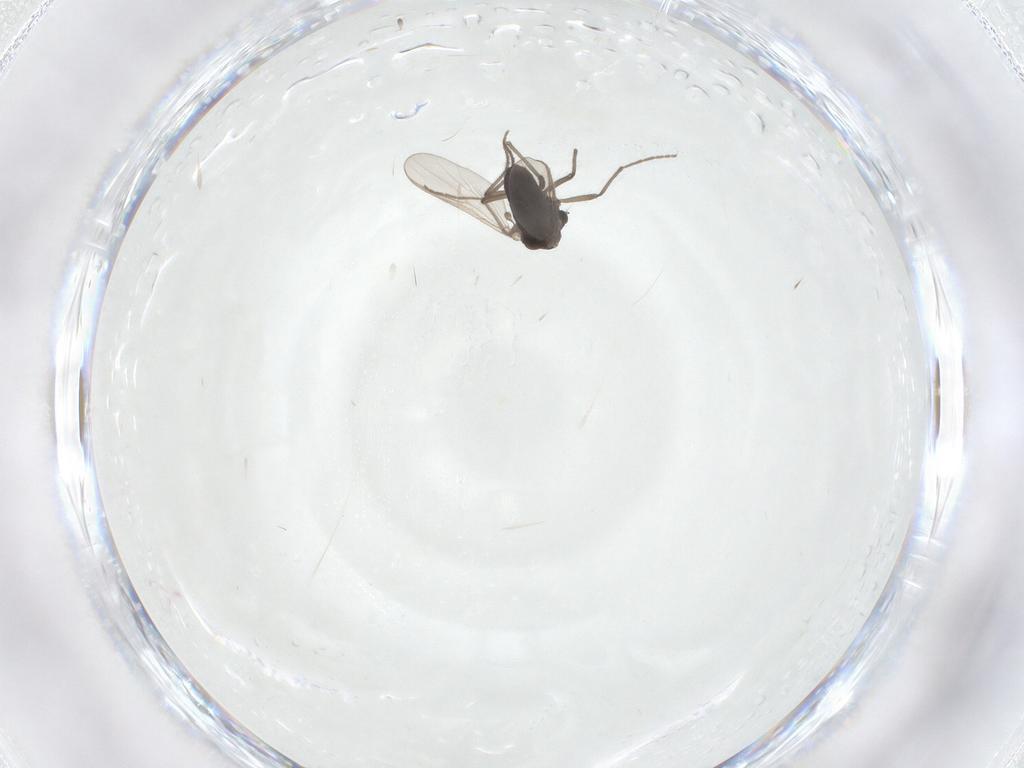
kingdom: Animalia
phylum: Arthropoda
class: Insecta
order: Diptera
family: Chironomidae
